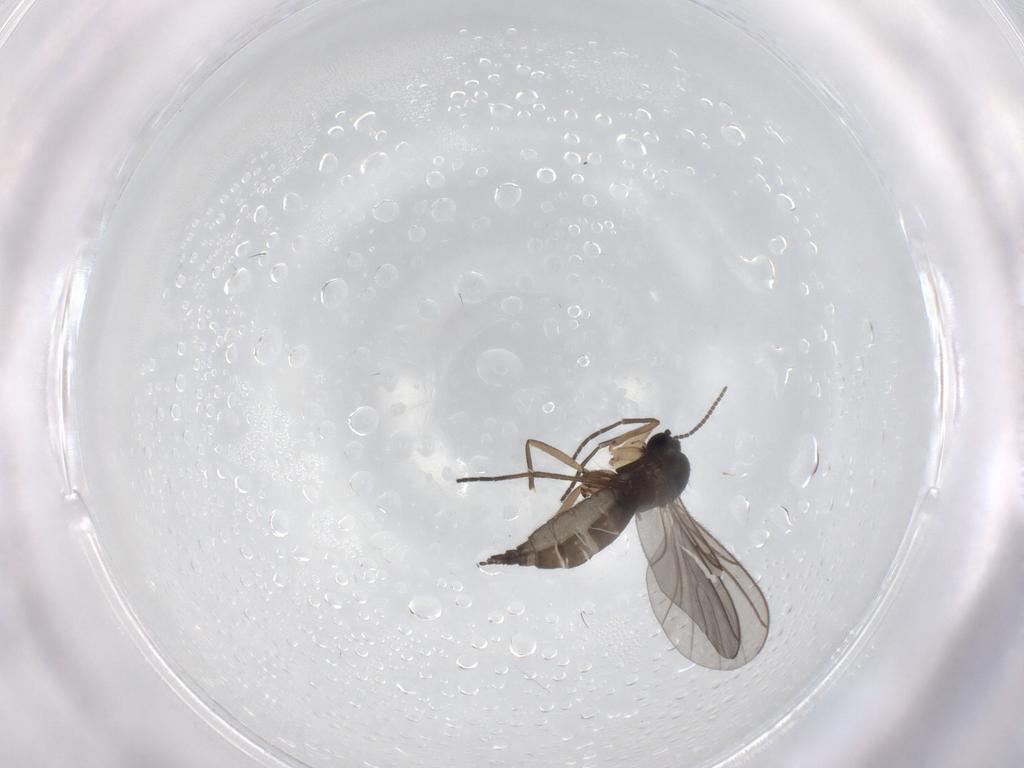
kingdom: Animalia
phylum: Arthropoda
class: Insecta
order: Diptera
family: Sciaridae
